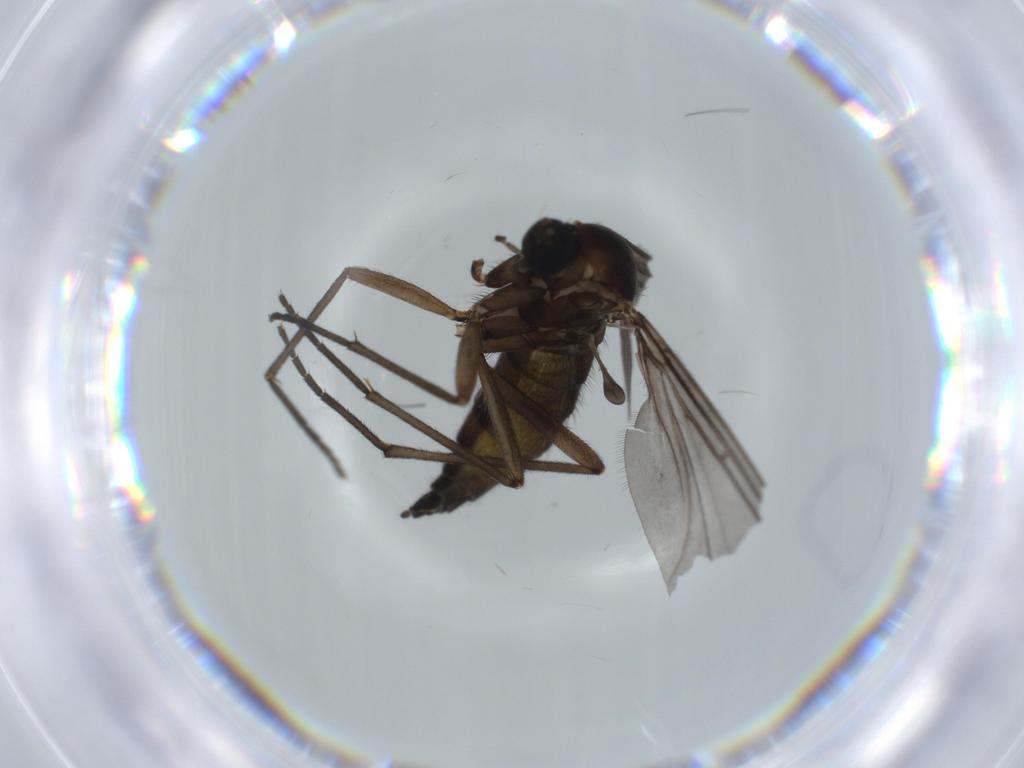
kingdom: Animalia
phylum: Arthropoda
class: Insecta
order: Diptera
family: Sciaridae
